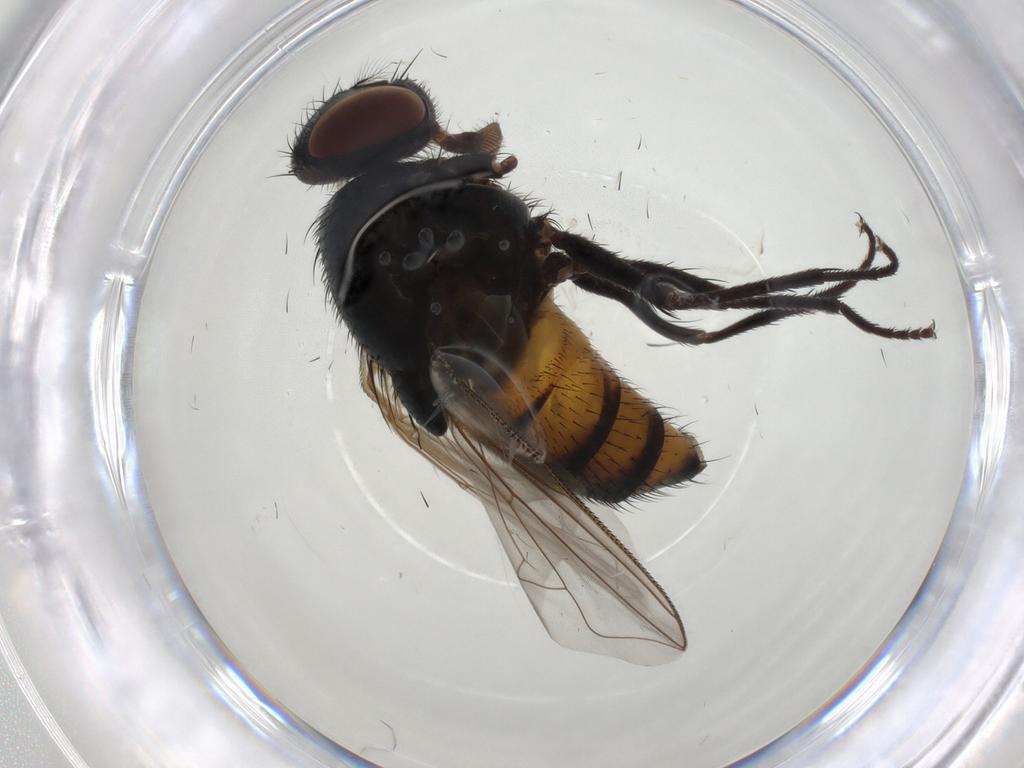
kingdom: Animalia
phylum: Arthropoda
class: Insecta
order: Diptera
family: Muscidae
